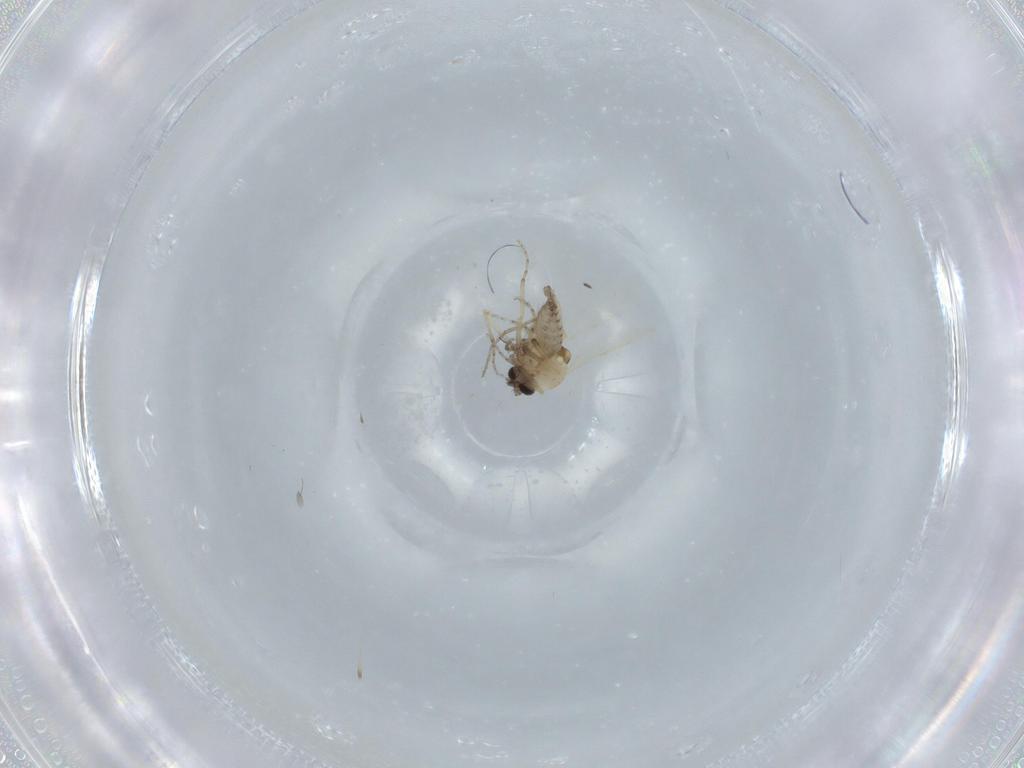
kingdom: Animalia
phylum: Arthropoda
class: Insecta
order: Diptera
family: Ceratopogonidae
